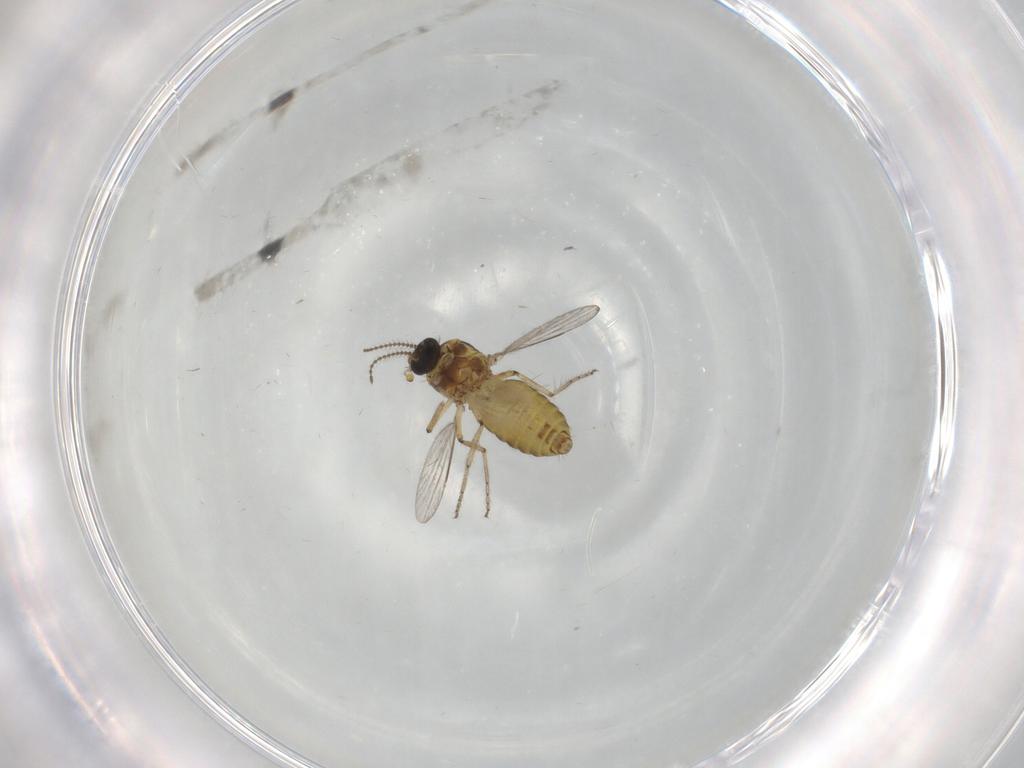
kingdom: Animalia
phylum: Arthropoda
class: Insecta
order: Diptera
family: Ceratopogonidae
